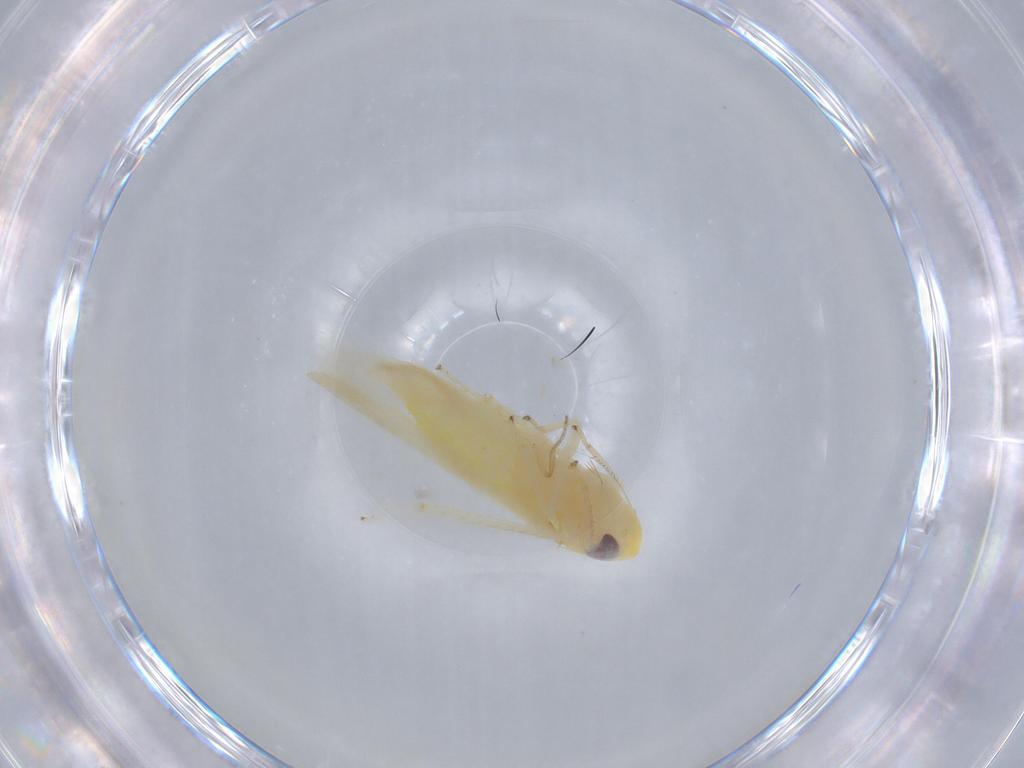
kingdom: Animalia
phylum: Arthropoda
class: Insecta
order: Hemiptera
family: Cicadellidae
